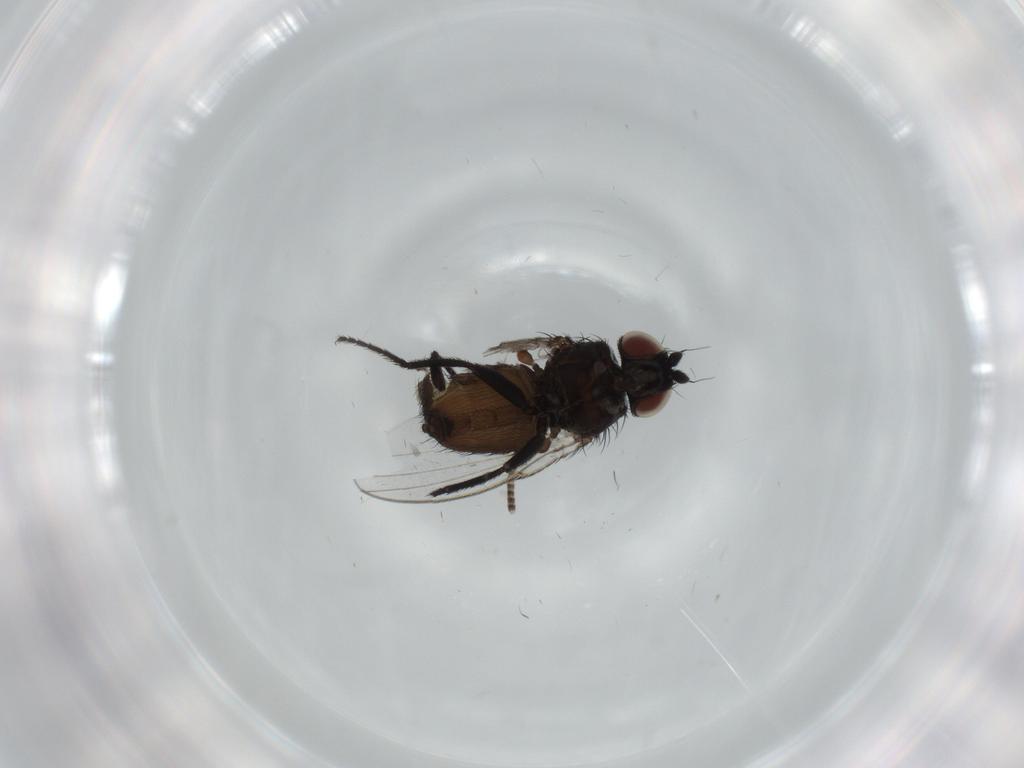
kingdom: Animalia
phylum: Arthropoda
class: Insecta
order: Diptera
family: Milichiidae
